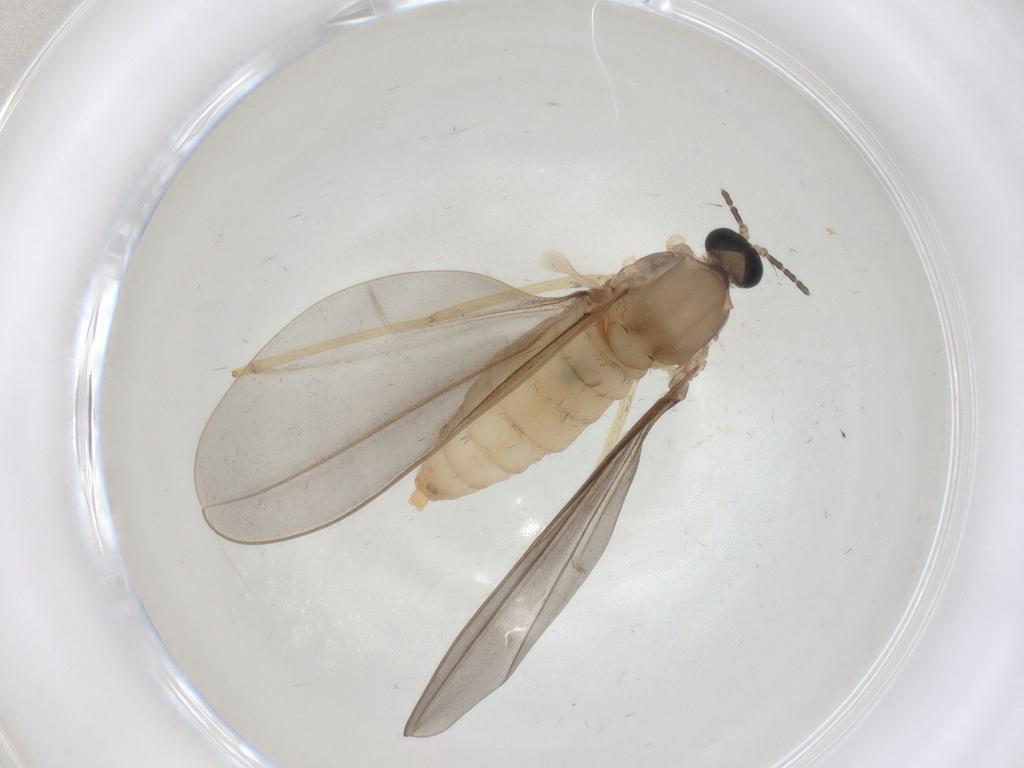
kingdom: Animalia
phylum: Arthropoda
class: Insecta
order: Diptera
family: Cecidomyiidae
